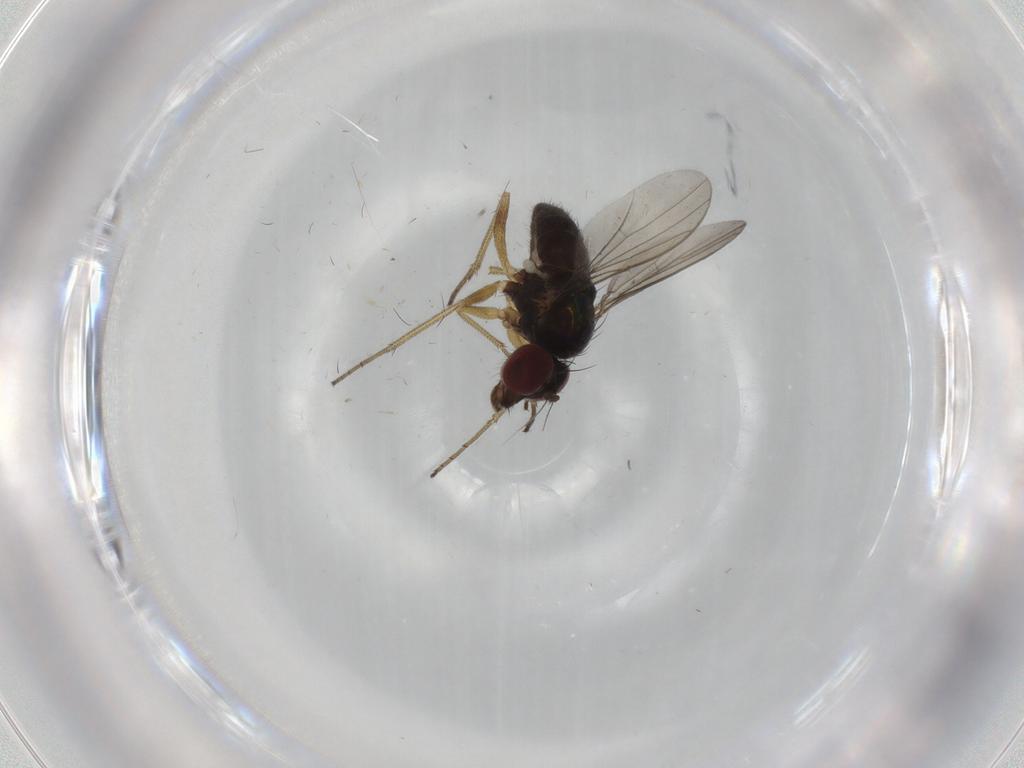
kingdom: Animalia
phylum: Arthropoda
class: Insecta
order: Diptera
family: Dolichopodidae
